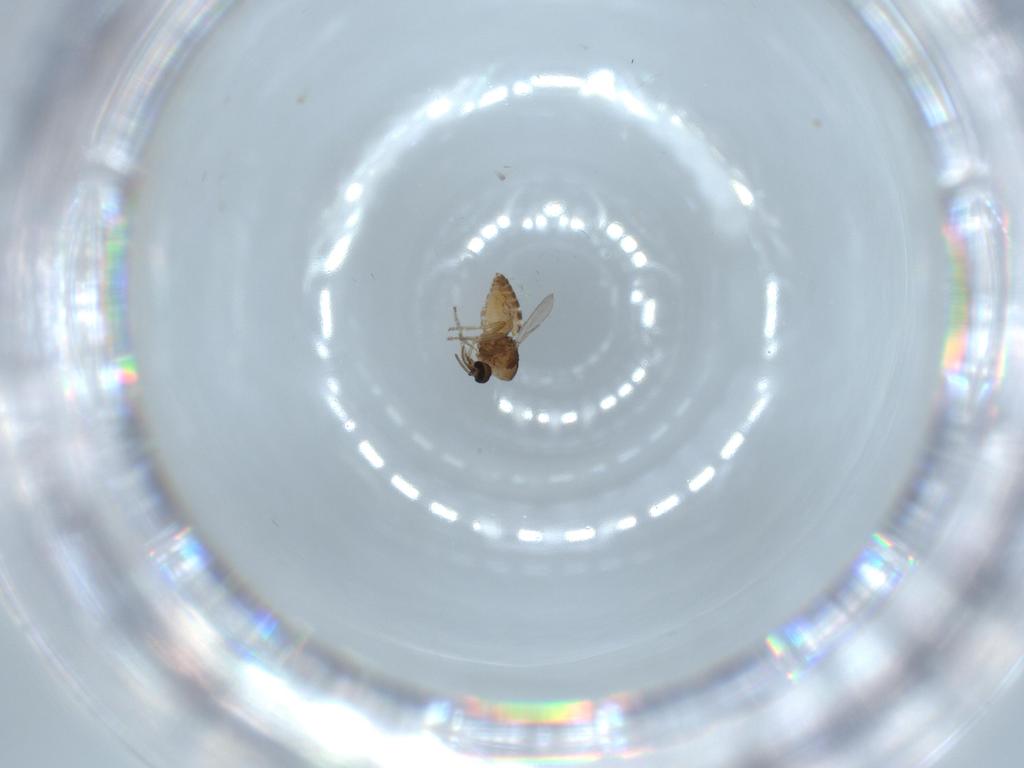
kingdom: Animalia
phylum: Arthropoda
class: Insecta
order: Diptera
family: Ceratopogonidae
